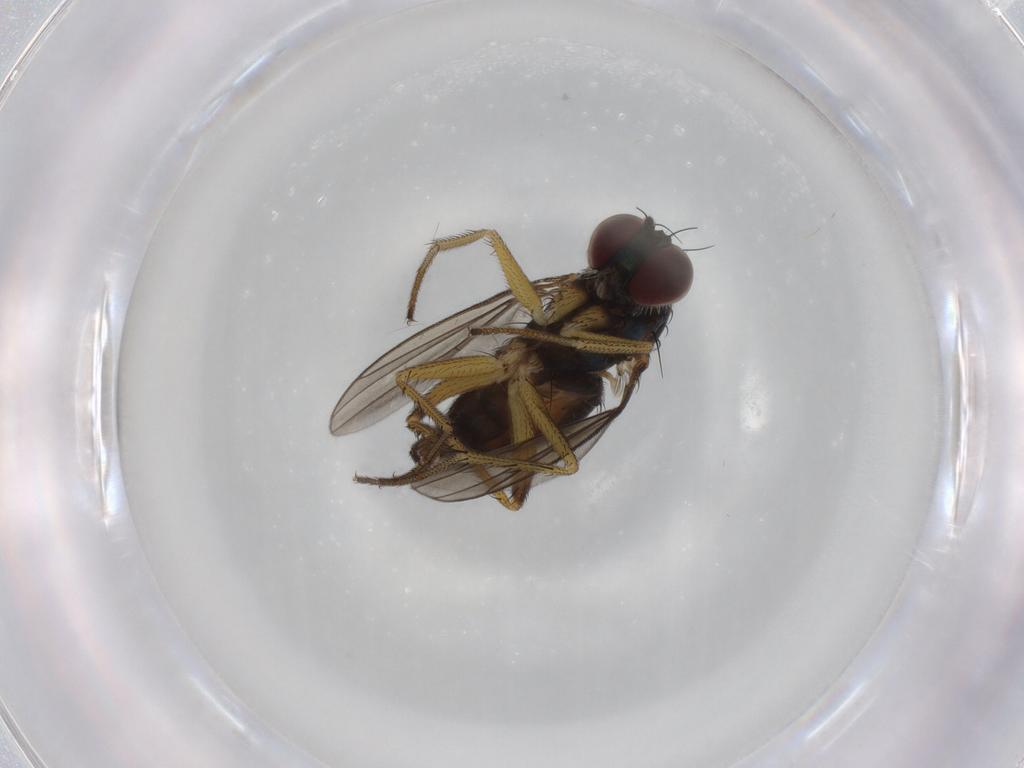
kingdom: Animalia
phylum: Arthropoda
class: Insecta
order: Diptera
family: Dolichopodidae
